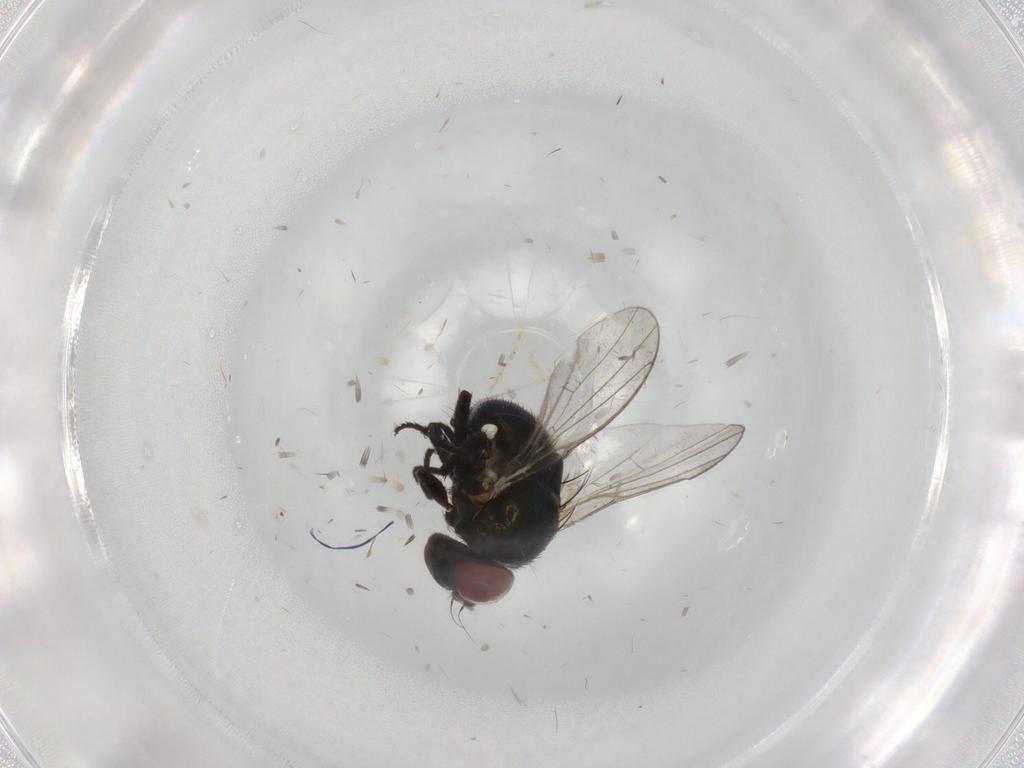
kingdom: Animalia
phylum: Arthropoda
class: Insecta
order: Diptera
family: Agromyzidae
